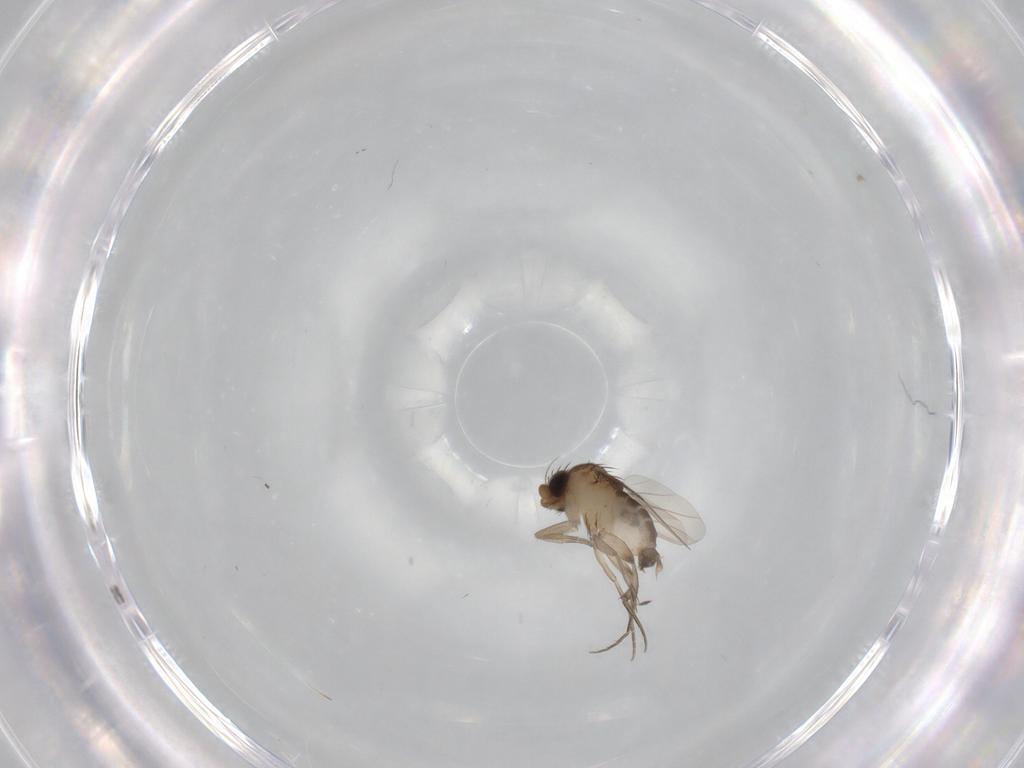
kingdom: Animalia
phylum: Arthropoda
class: Insecta
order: Diptera
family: Phoridae
